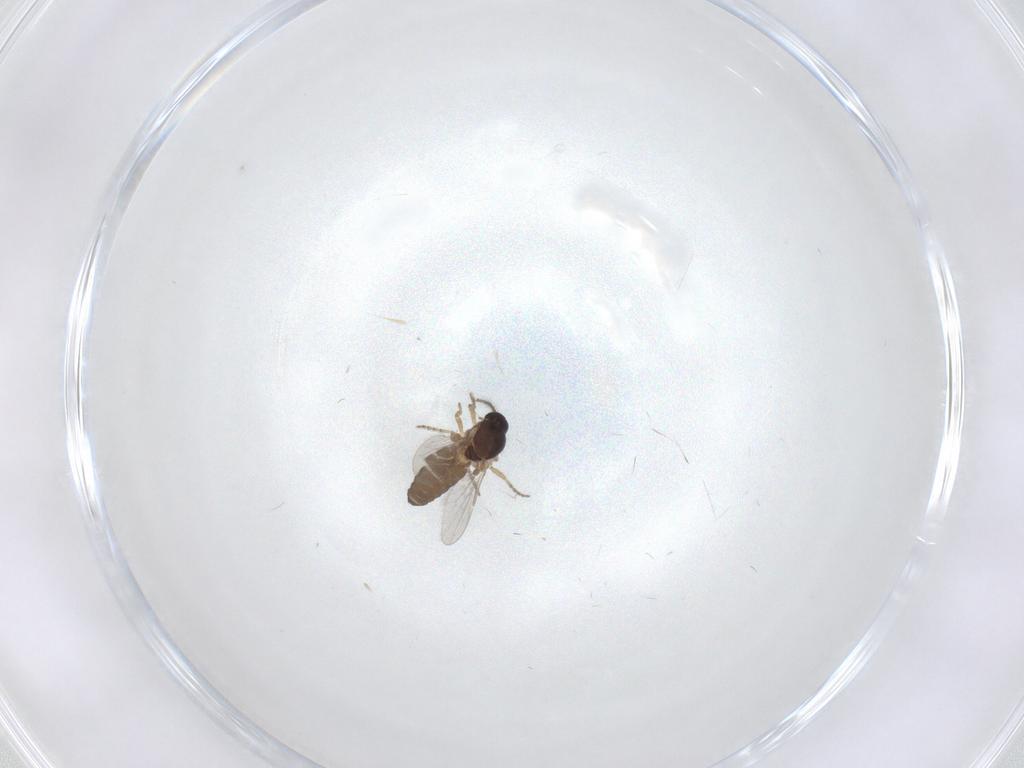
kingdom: Animalia
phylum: Arthropoda
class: Insecta
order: Diptera
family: Ceratopogonidae
